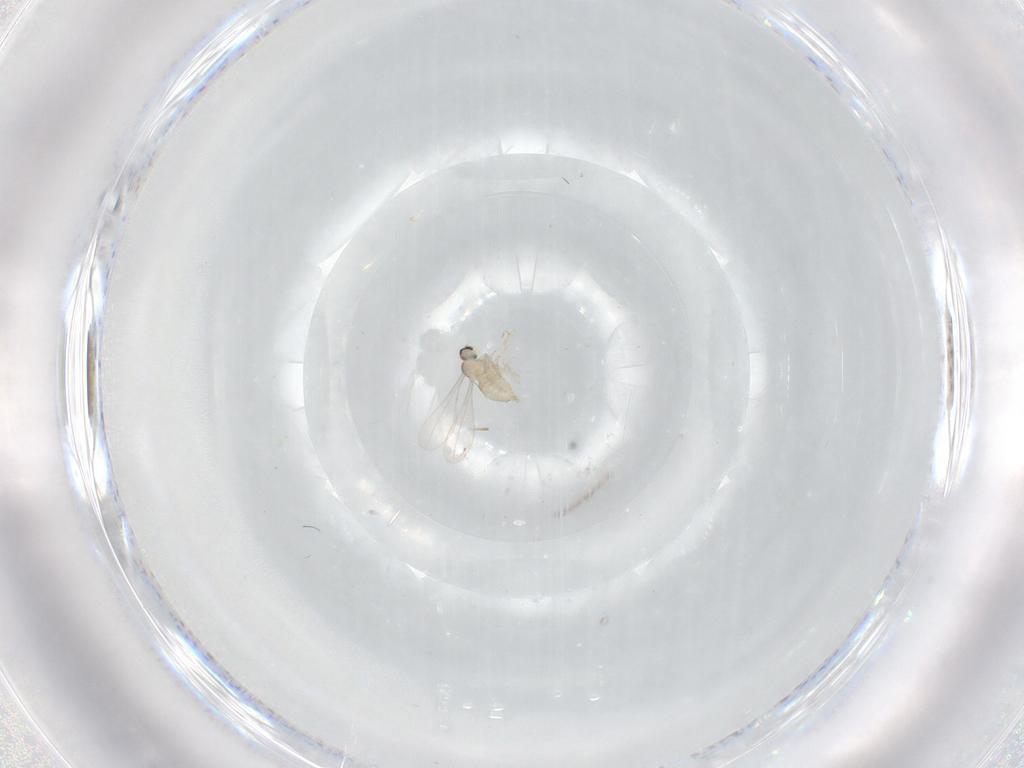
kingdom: Animalia
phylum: Arthropoda
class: Insecta
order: Diptera
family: Cecidomyiidae
